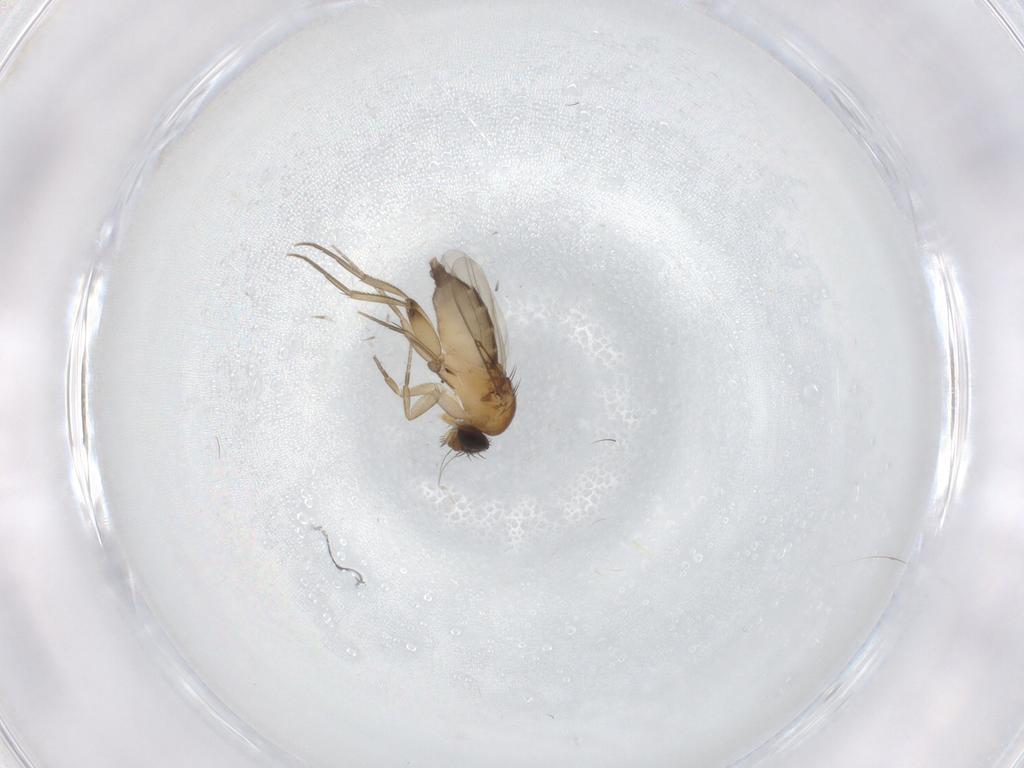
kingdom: Animalia
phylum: Arthropoda
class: Insecta
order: Diptera
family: Phoridae
